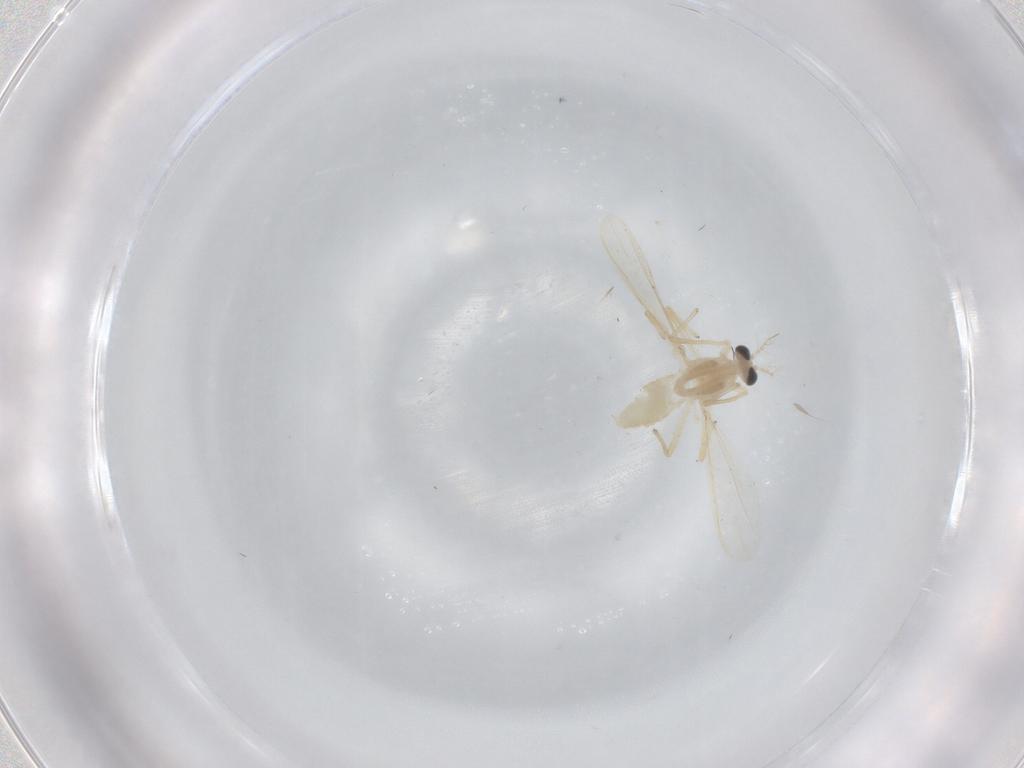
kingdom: Animalia
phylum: Arthropoda
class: Insecta
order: Diptera
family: Chironomidae
